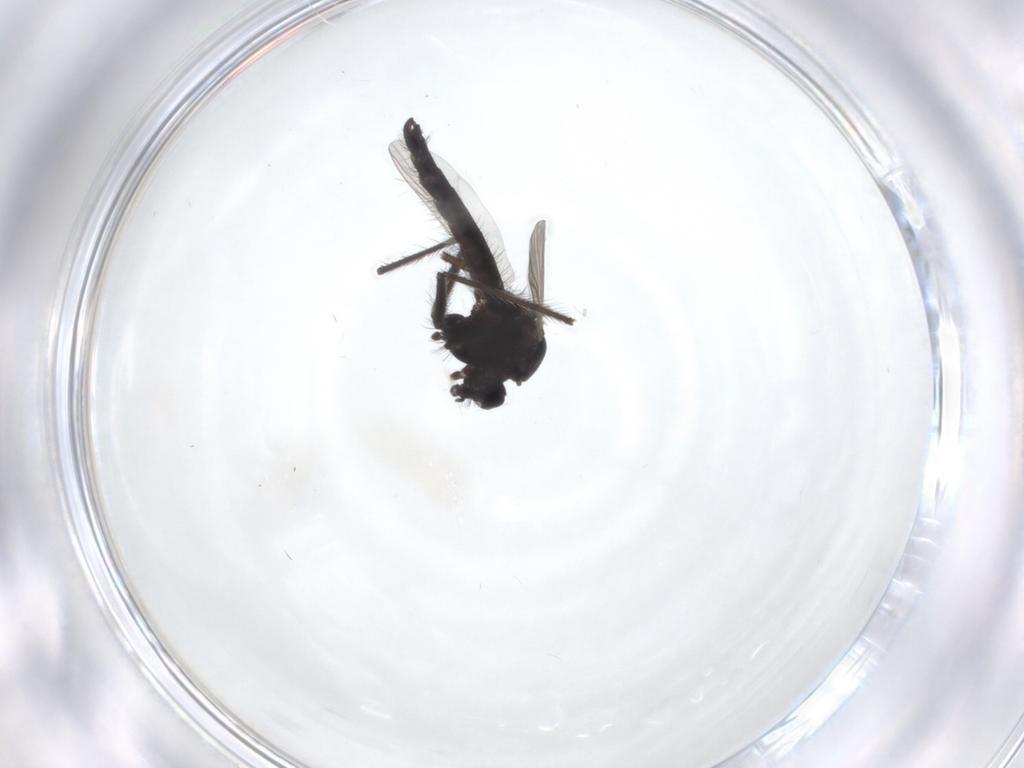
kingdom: Animalia
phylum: Arthropoda
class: Insecta
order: Diptera
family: Chironomidae
